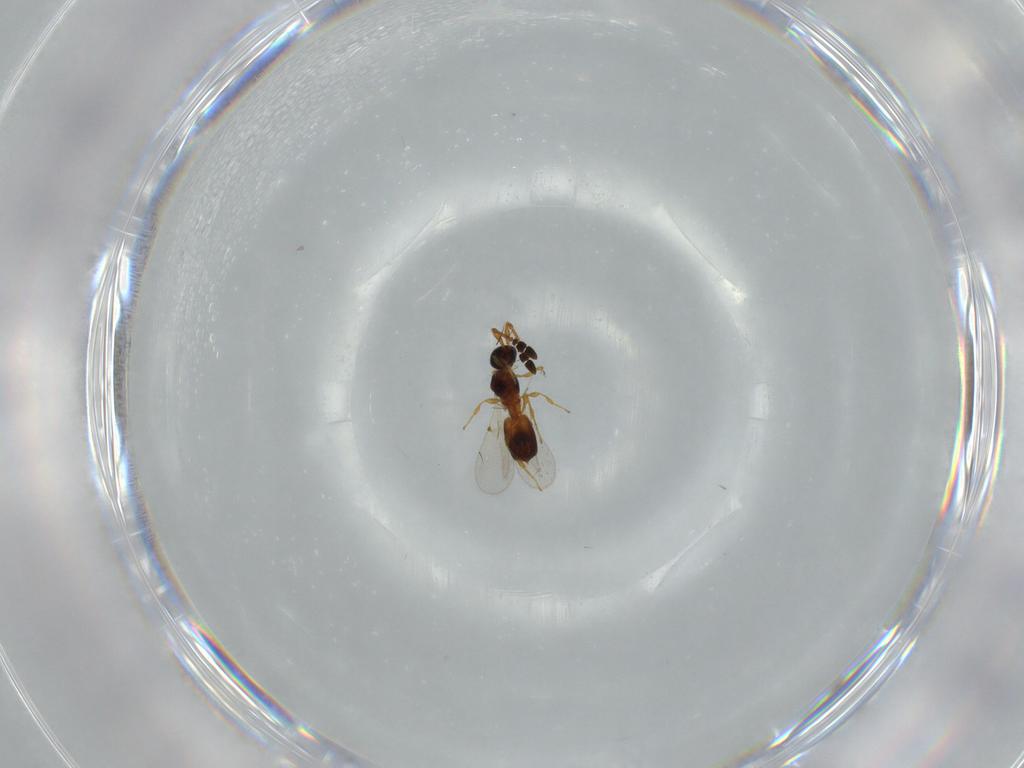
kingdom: Animalia
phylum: Arthropoda
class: Insecta
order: Hymenoptera
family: Diapriidae
